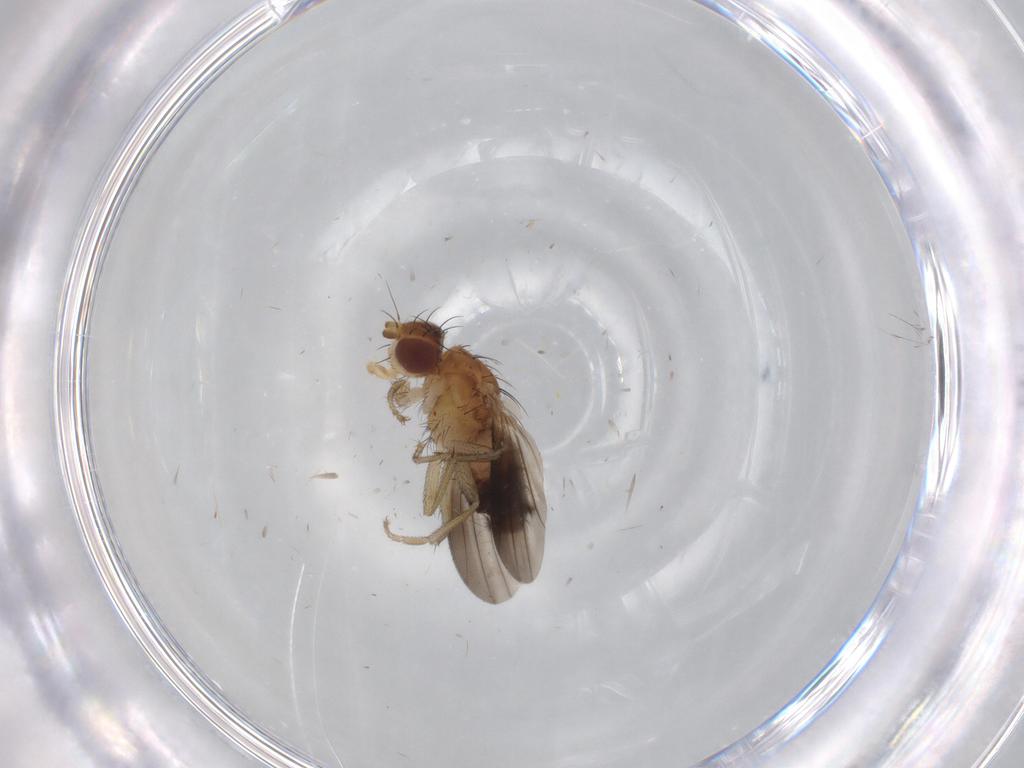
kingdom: Animalia
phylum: Arthropoda
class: Insecta
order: Diptera
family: Heleomyzidae
